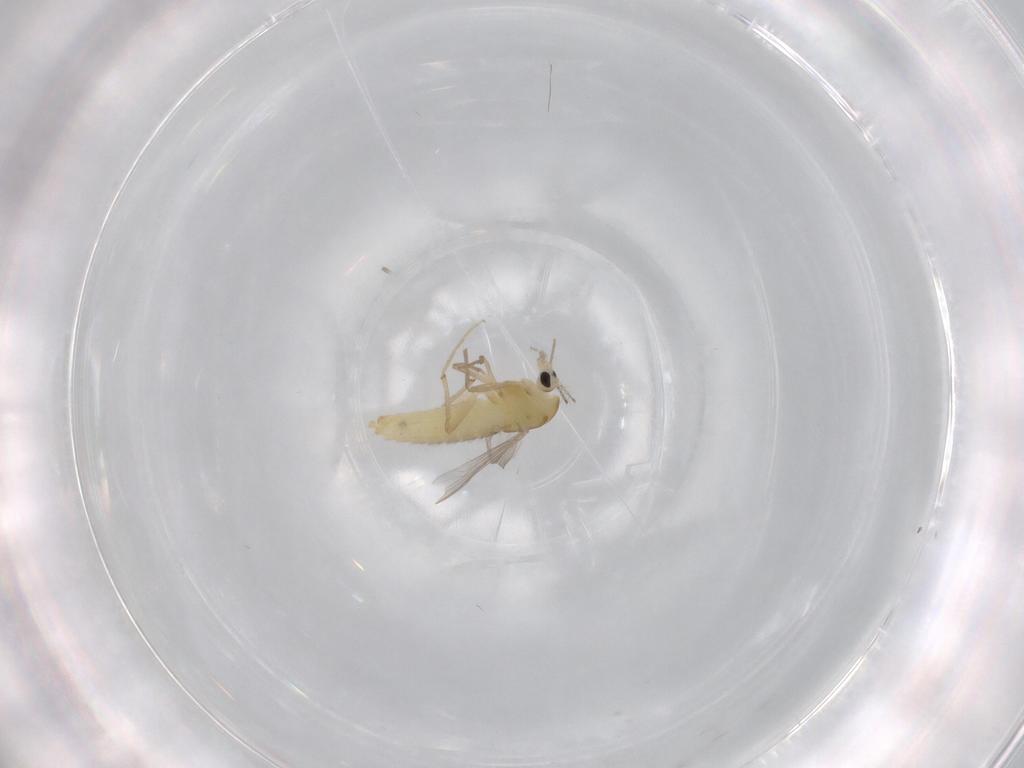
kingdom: Animalia
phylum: Arthropoda
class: Insecta
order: Diptera
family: Chironomidae
